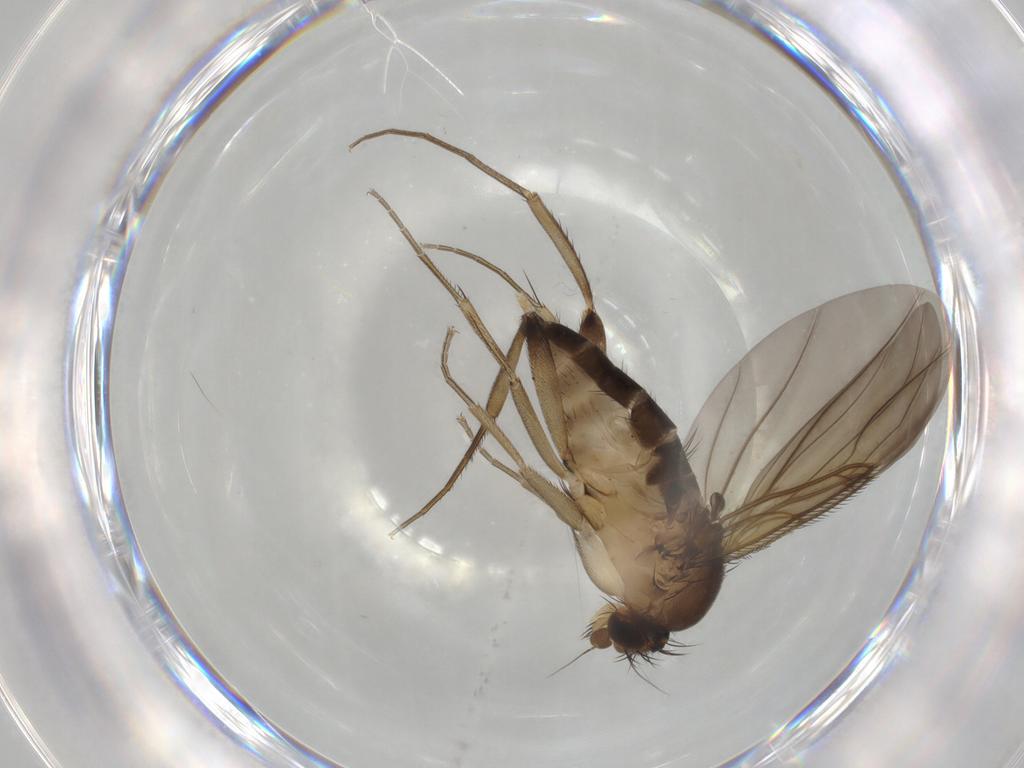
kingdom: Animalia
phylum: Arthropoda
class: Insecta
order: Diptera
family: Phoridae
